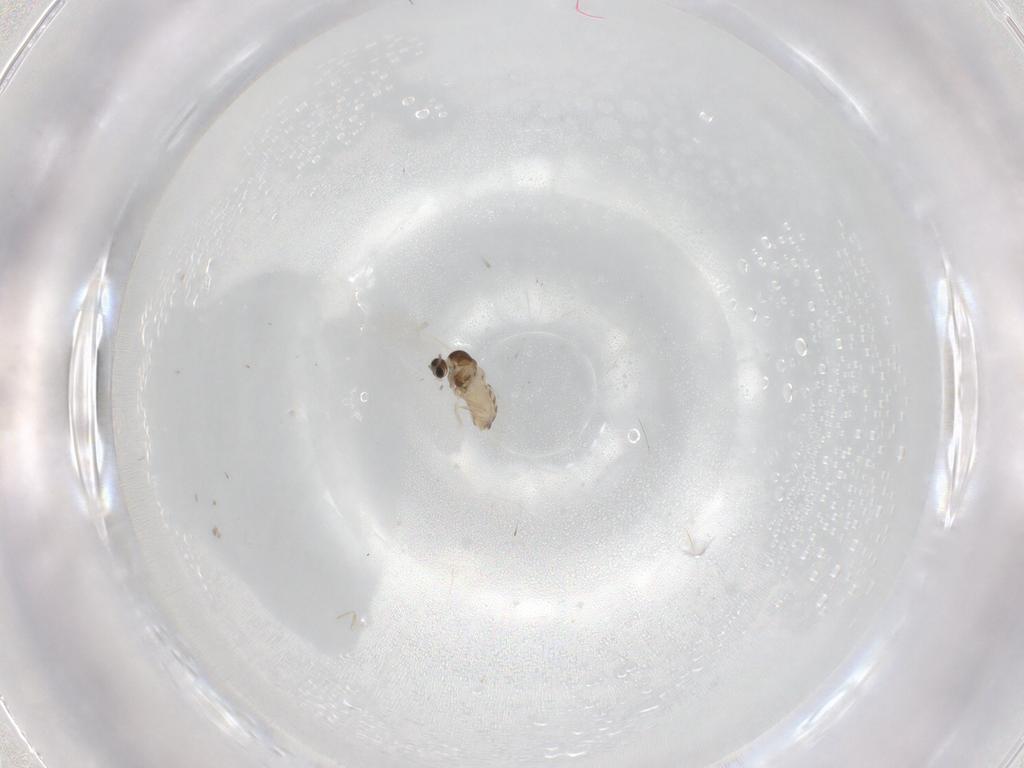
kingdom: Animalia
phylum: Arthropoda
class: Insecta
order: Diptera
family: Cecidomyiidae
